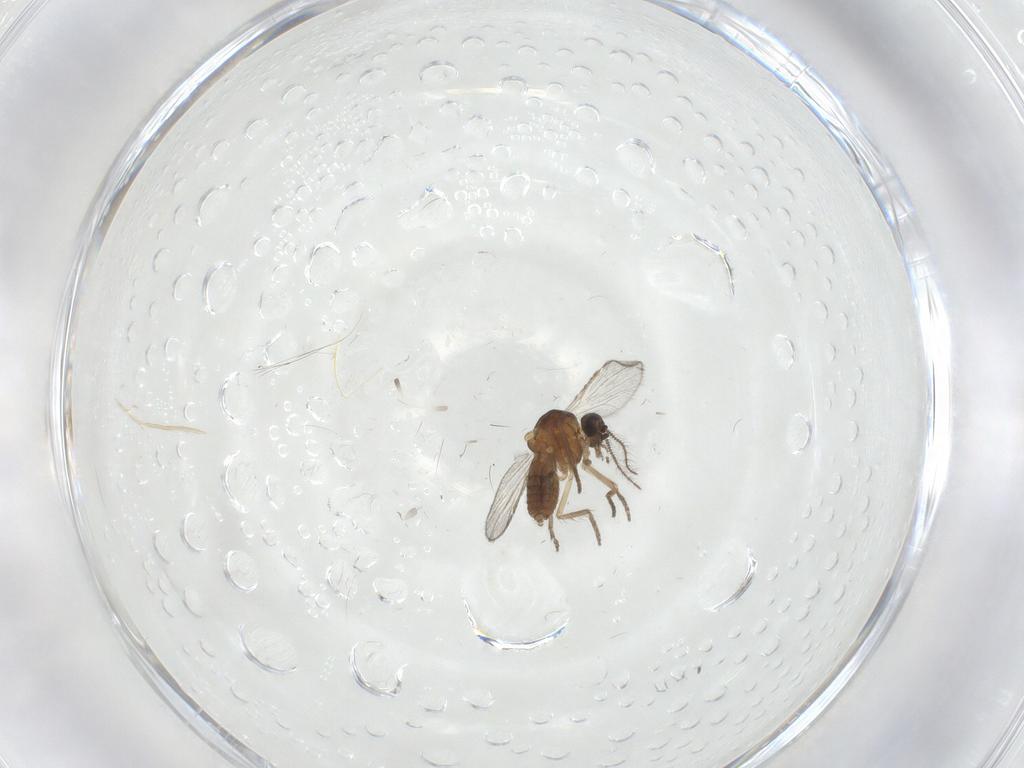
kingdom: Animalia
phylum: Arthropoda
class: Insecta
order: Diptera
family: Cecidomyiidae
